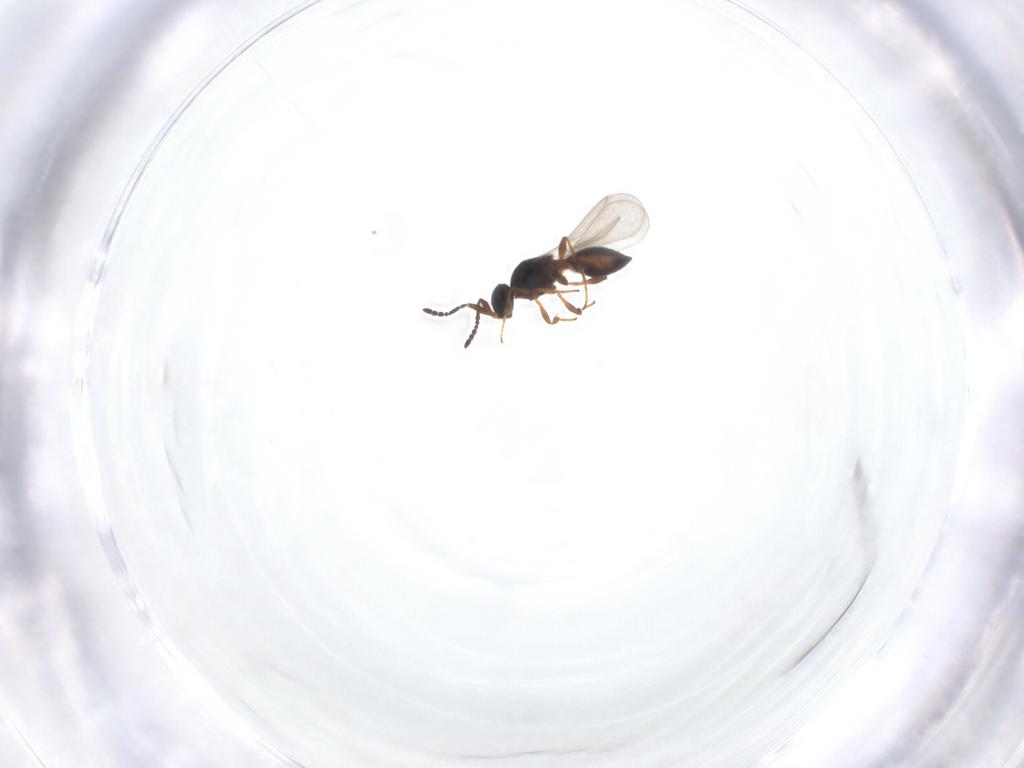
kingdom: Animalia
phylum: Arthropoda
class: Insecta
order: Hymenoptera
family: Platygastridae
